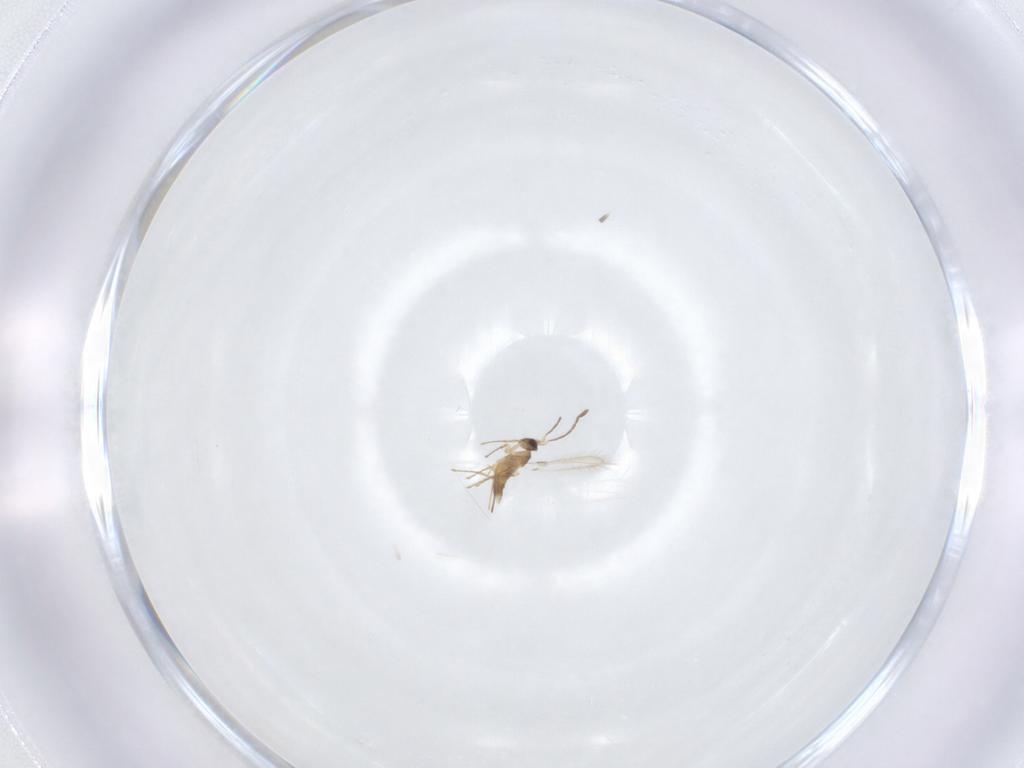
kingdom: Animalia
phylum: Arthropoda
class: Insecta
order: Hymenoptera
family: Mymaridae
